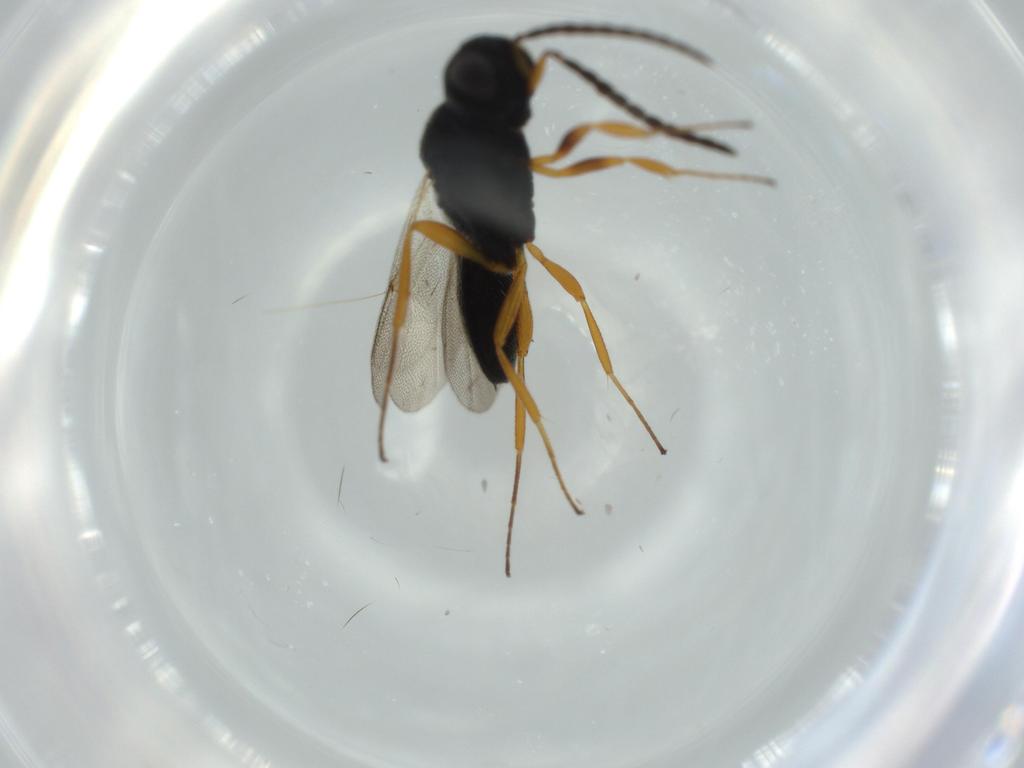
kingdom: Animalia
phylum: Arthropoda
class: Insecta
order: Hymenoptera
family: Scelionidae
